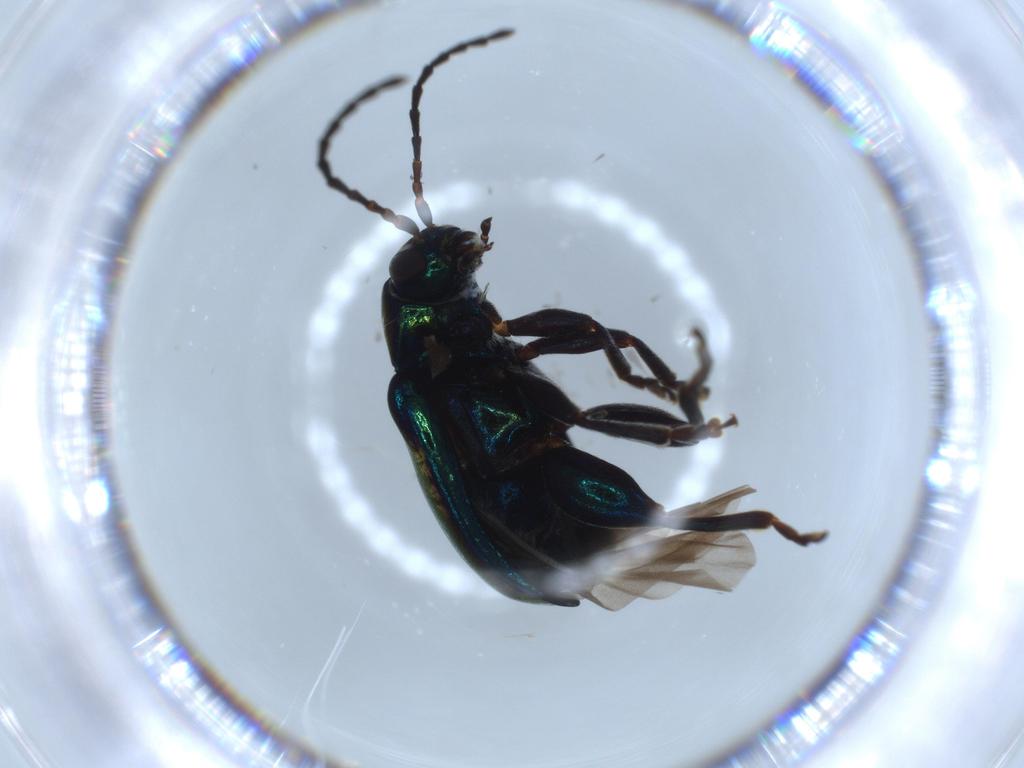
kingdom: Animalia
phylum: Arthropoda
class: Insecta
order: Coleoptera
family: Chrysomelidae
